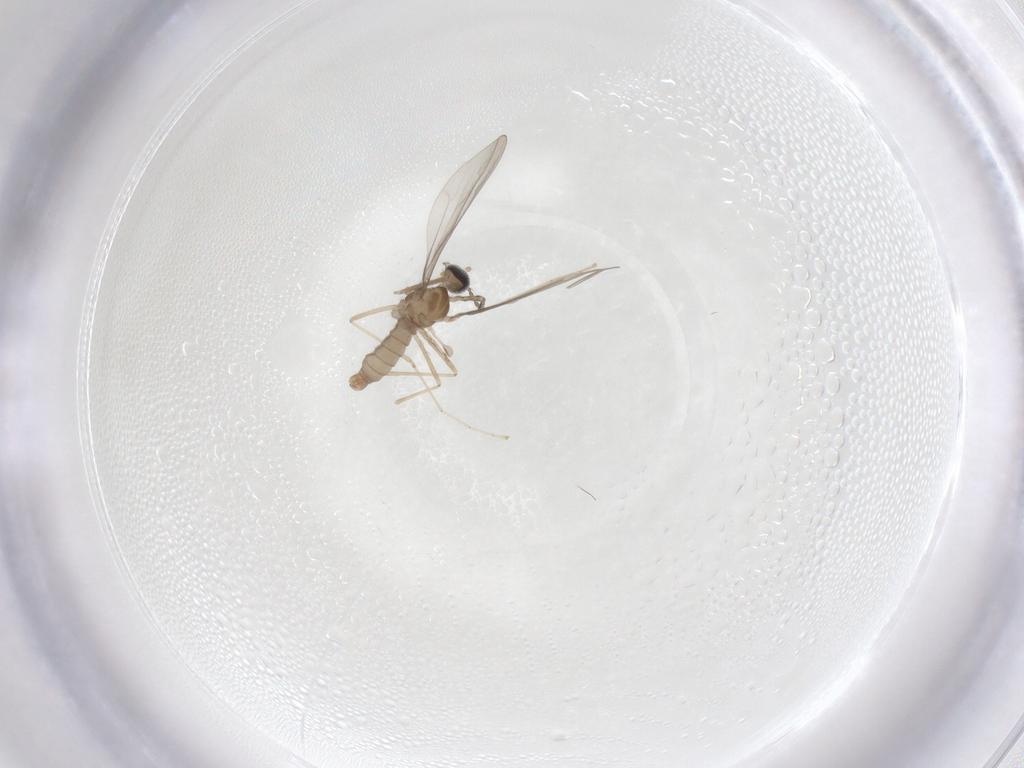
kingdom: Animalia
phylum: Arthropoda
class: Insecta
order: Diptera
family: Cecidomyiidae
